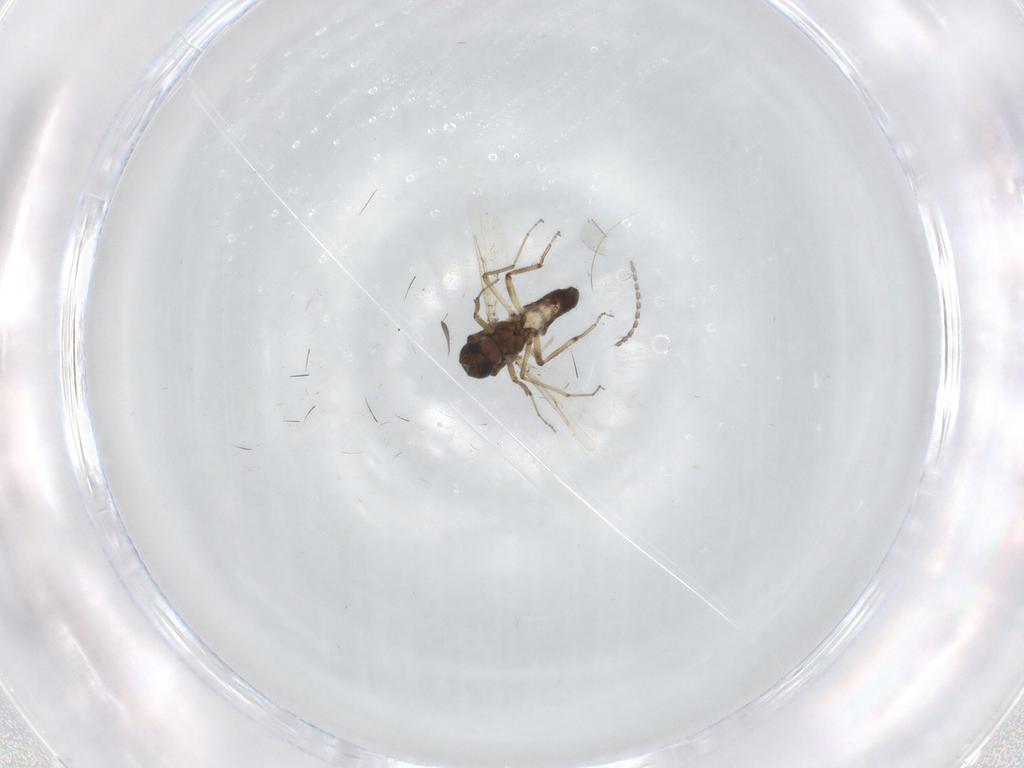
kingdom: Animalia
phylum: Arthropoda
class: Insecta
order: Diptera
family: Ceratopogonidae
